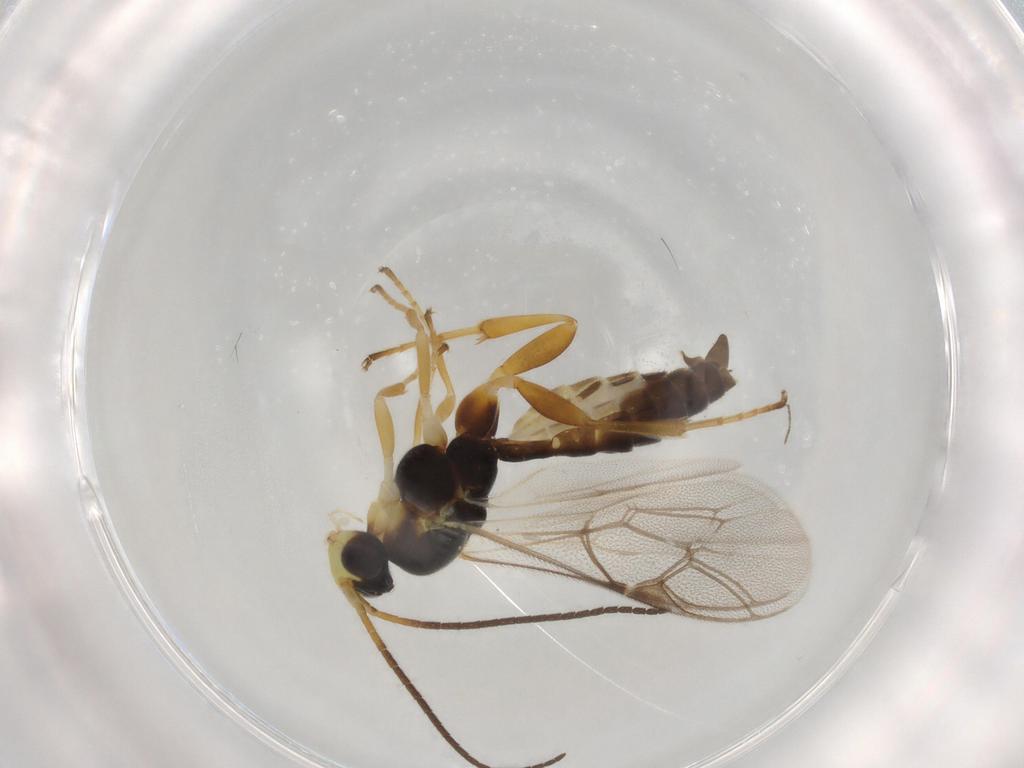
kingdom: Animalia
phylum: Arthropoda
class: Insecta
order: Hymenoptera
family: Ichneumonidae
